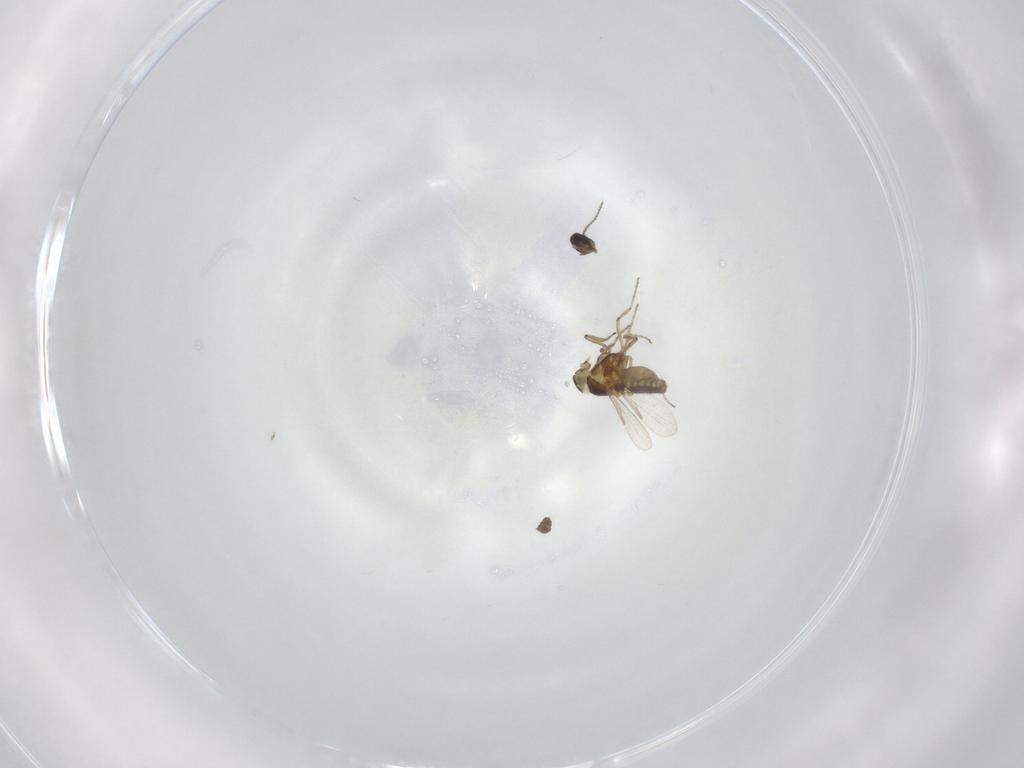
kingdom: Animalia
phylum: Arthropoda
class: Insecta
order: Diptera
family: Ceratopogonidae
